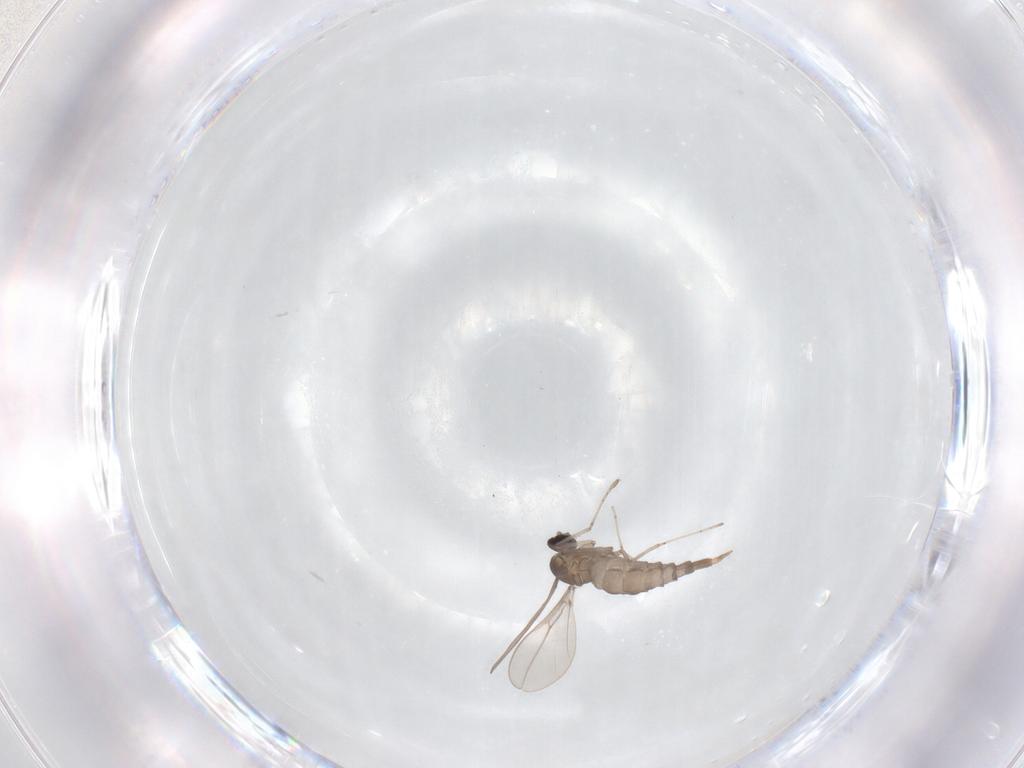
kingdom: Animalia
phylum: Arthropoda
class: Insecta
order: Diptera
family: Cecidomyiidae
